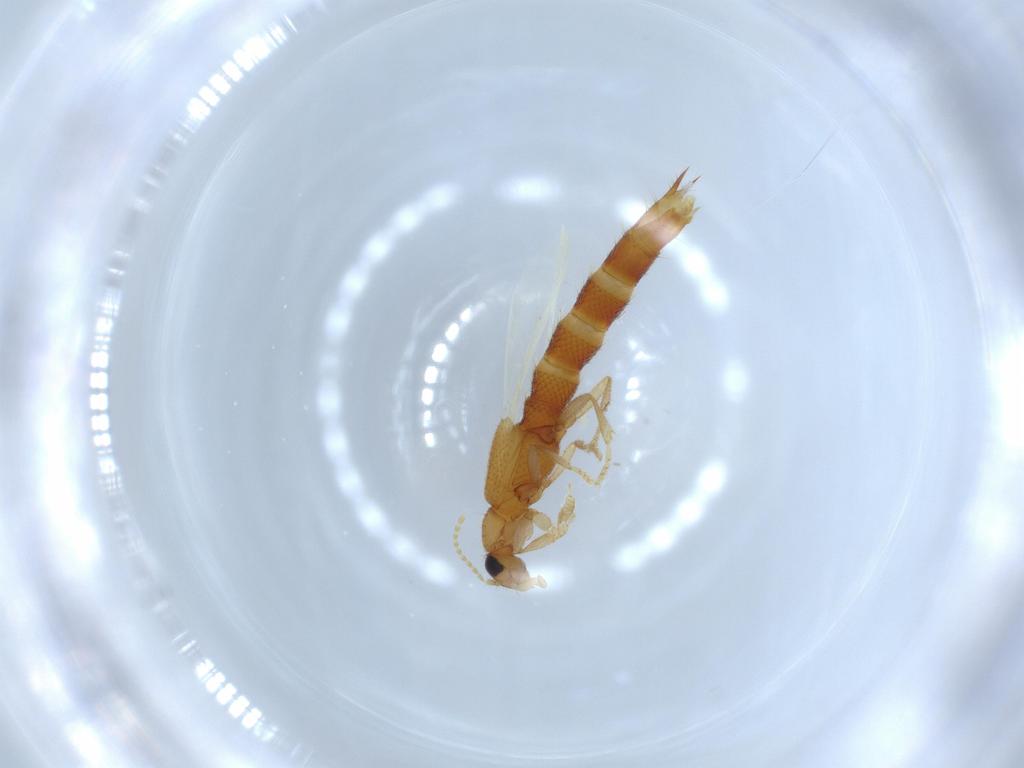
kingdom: Animalia
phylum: Arthropoda
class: Insecta
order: Coleoptera
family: Staphylinidae
